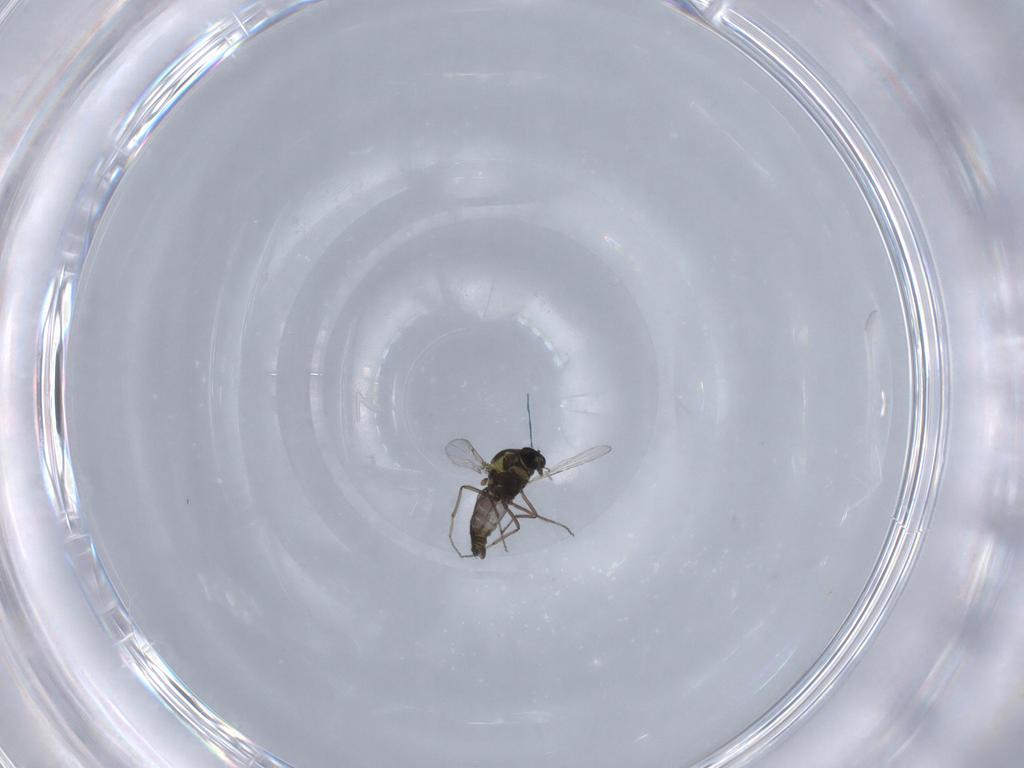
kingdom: Animalia
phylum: Arthropoda
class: Insecta
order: Diptera
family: Ceratopogonidae
